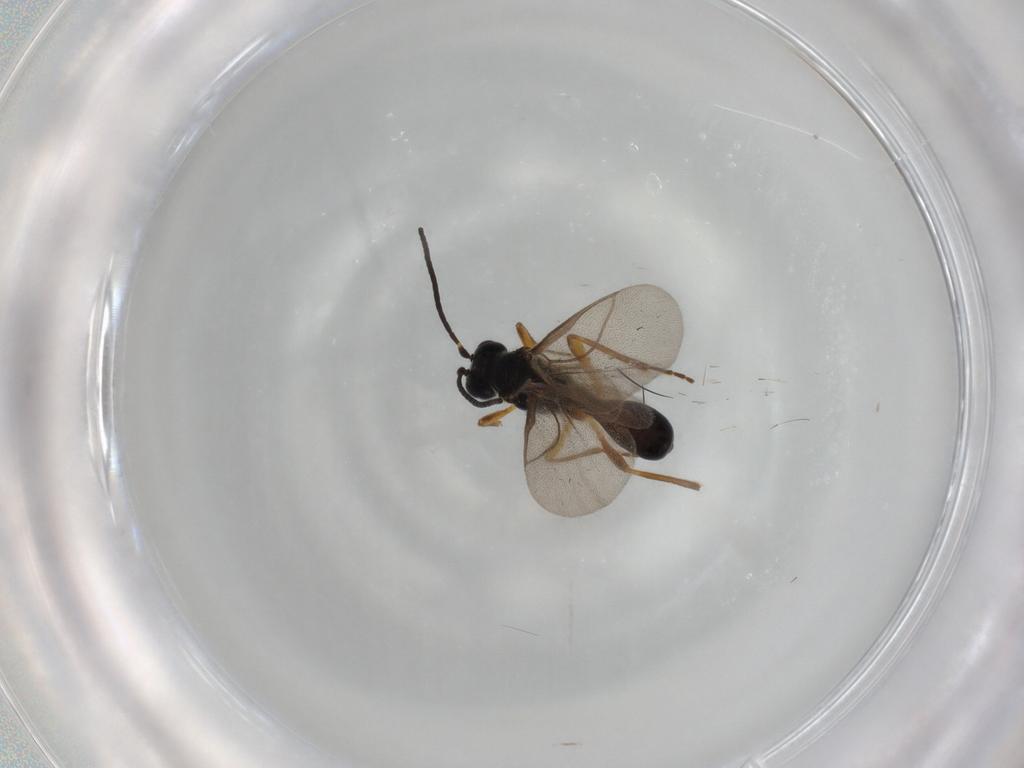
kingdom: Animalia
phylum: Arthropoda
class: Insecta
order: Hymenoptera
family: Braconidae
